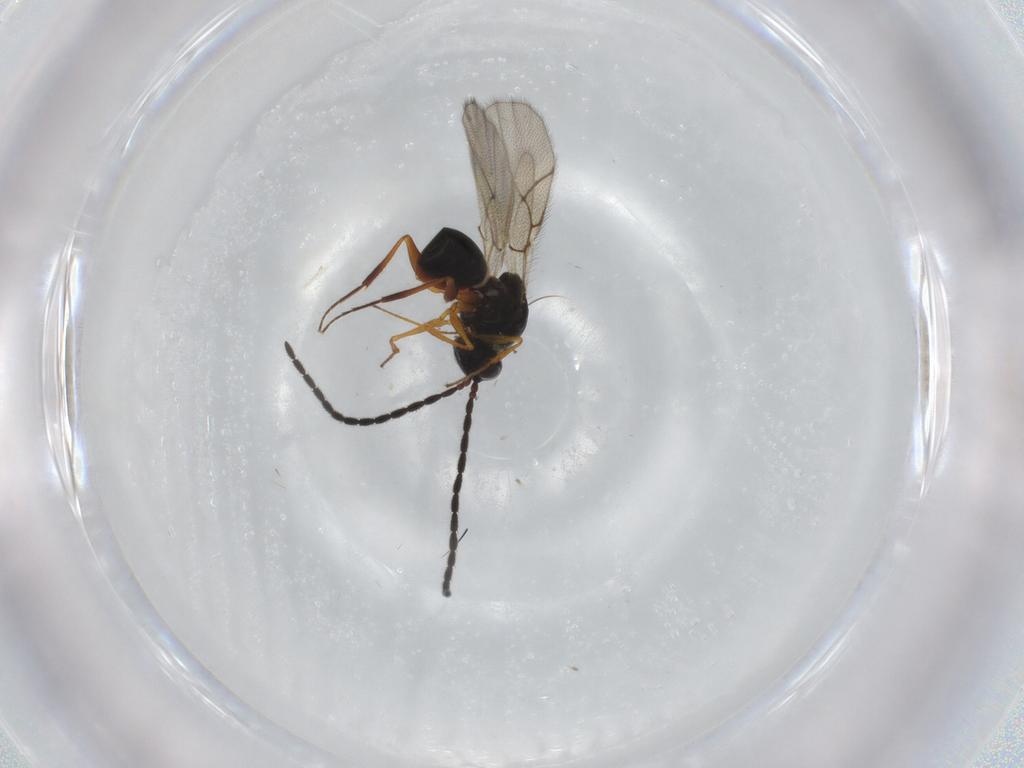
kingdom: Animalia
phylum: Arthropoda
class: Insecta
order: Hymenoptera
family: Figitidae
